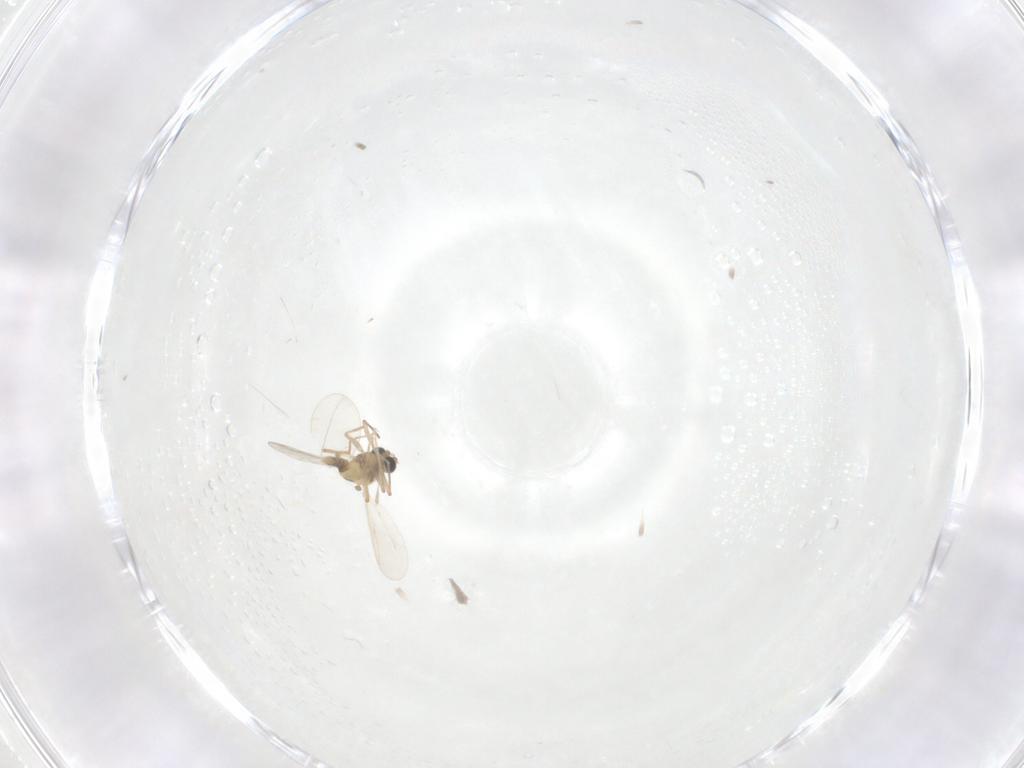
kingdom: Animalia
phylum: Arthropoda
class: Insecta
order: Diptera
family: Cecidomyiidae
